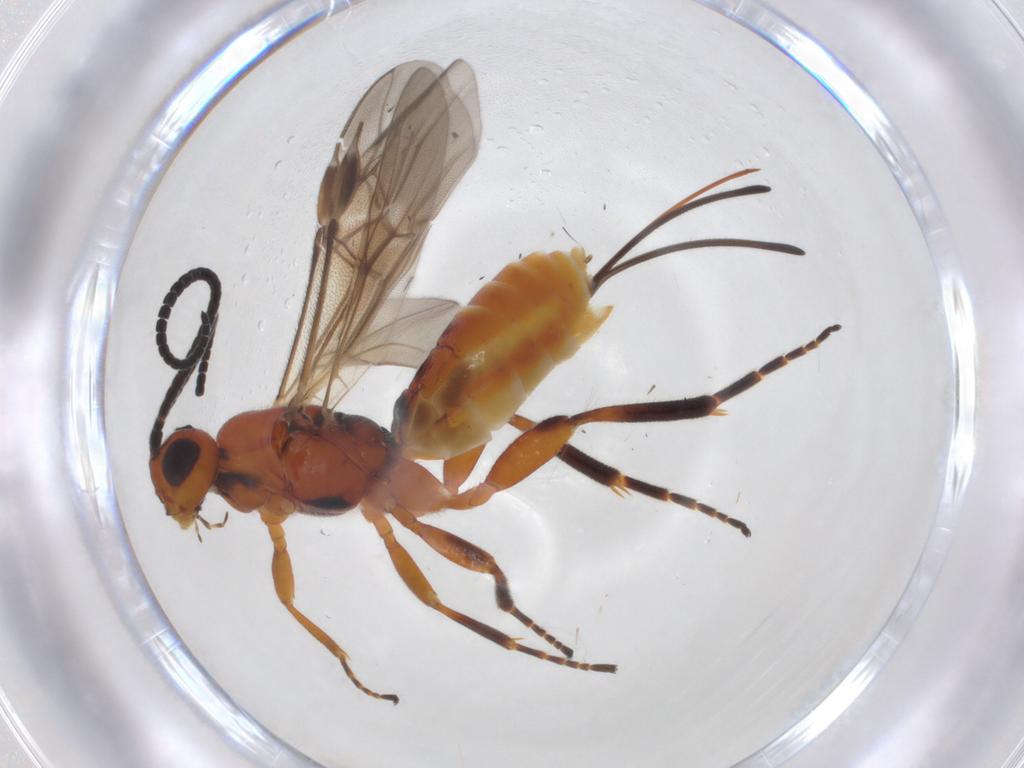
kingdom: Animalia
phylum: Arthropoda
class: Insecta
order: Hymenoptera
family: Braconidae
